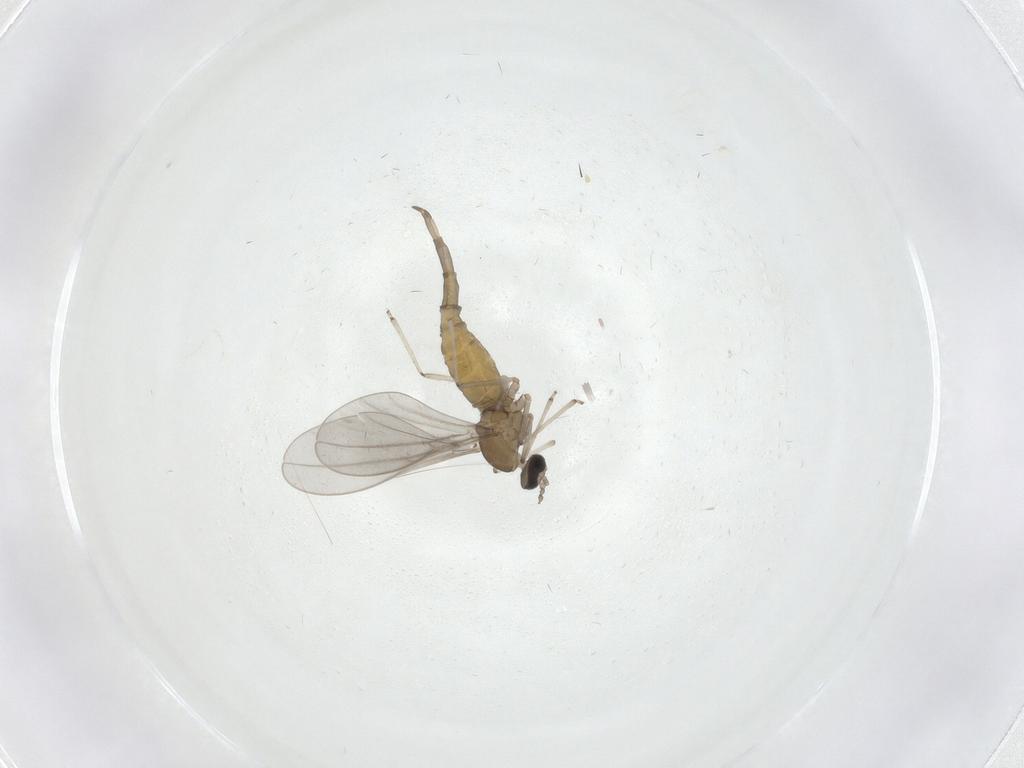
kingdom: Animalia
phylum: Arthropoda
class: Insecta
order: Diptera
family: Cecidomyiidae
